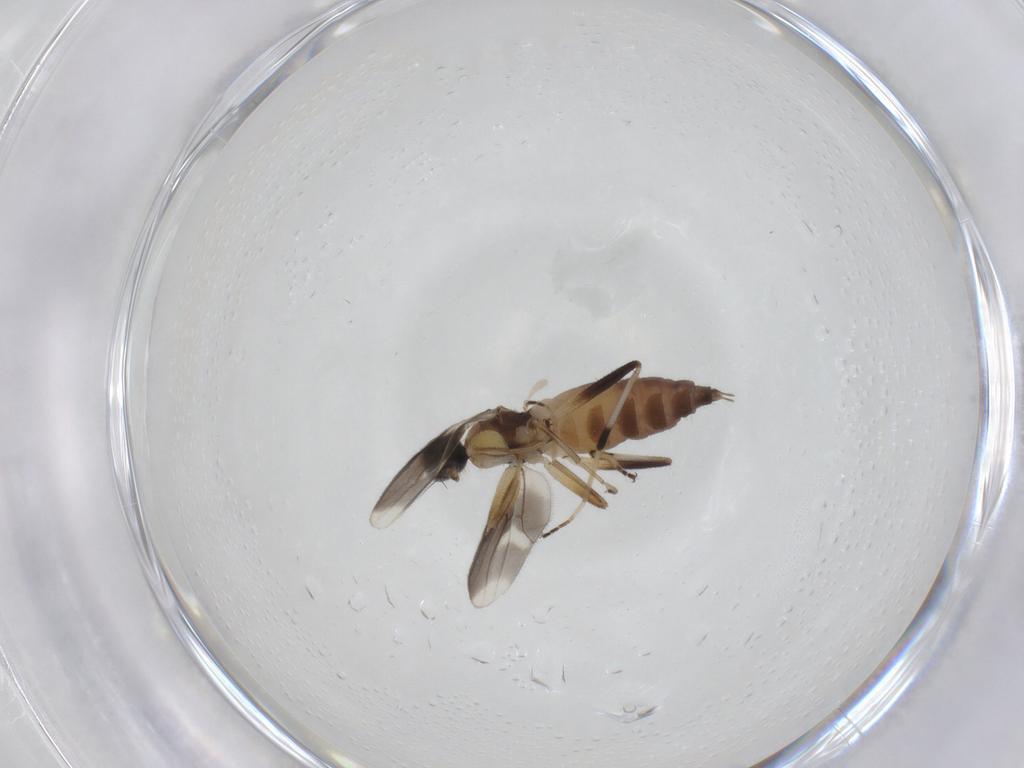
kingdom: Animalia
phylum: Arthropoda
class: Insecta
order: Diptera
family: Hybotidae
